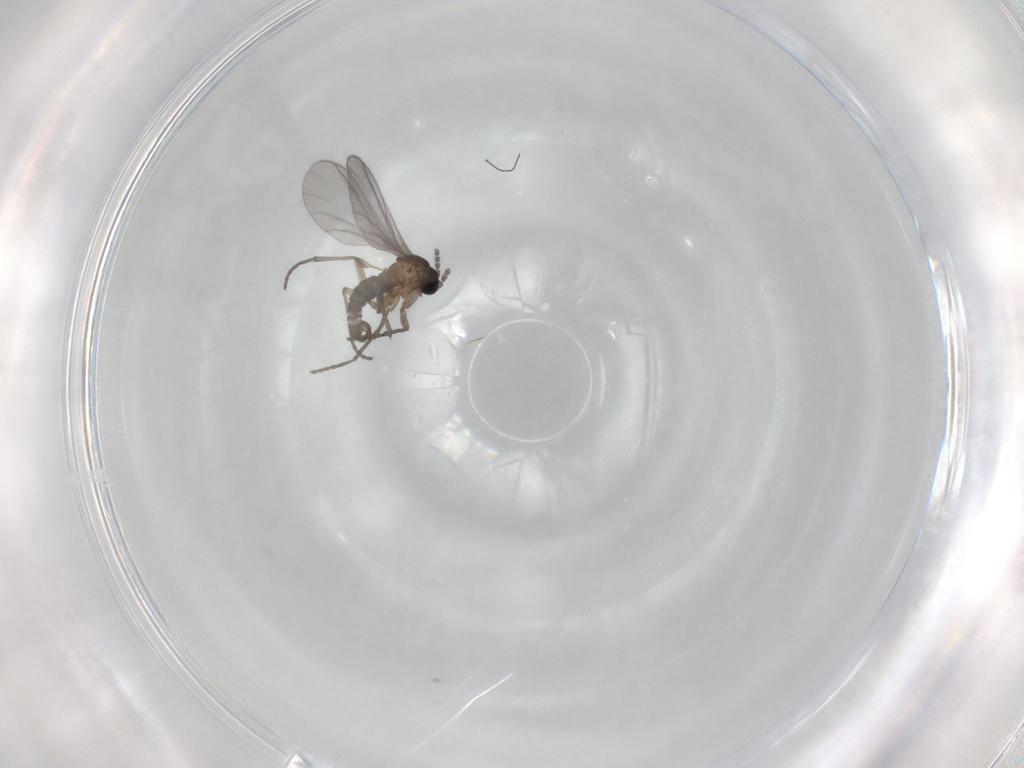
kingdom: Animalia
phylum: Arthropoda
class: Insecta
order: Diptera
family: Sciaridae
